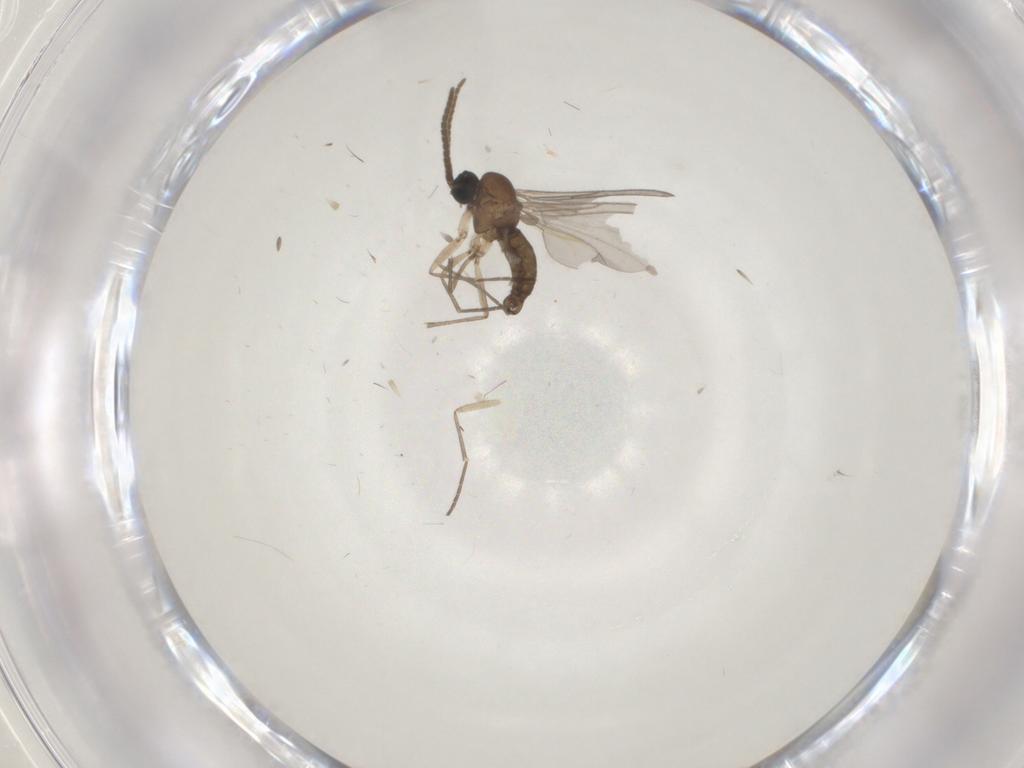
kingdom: Animalia
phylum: Arthropoda
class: Insecta
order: Diptera
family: Sciaridae
